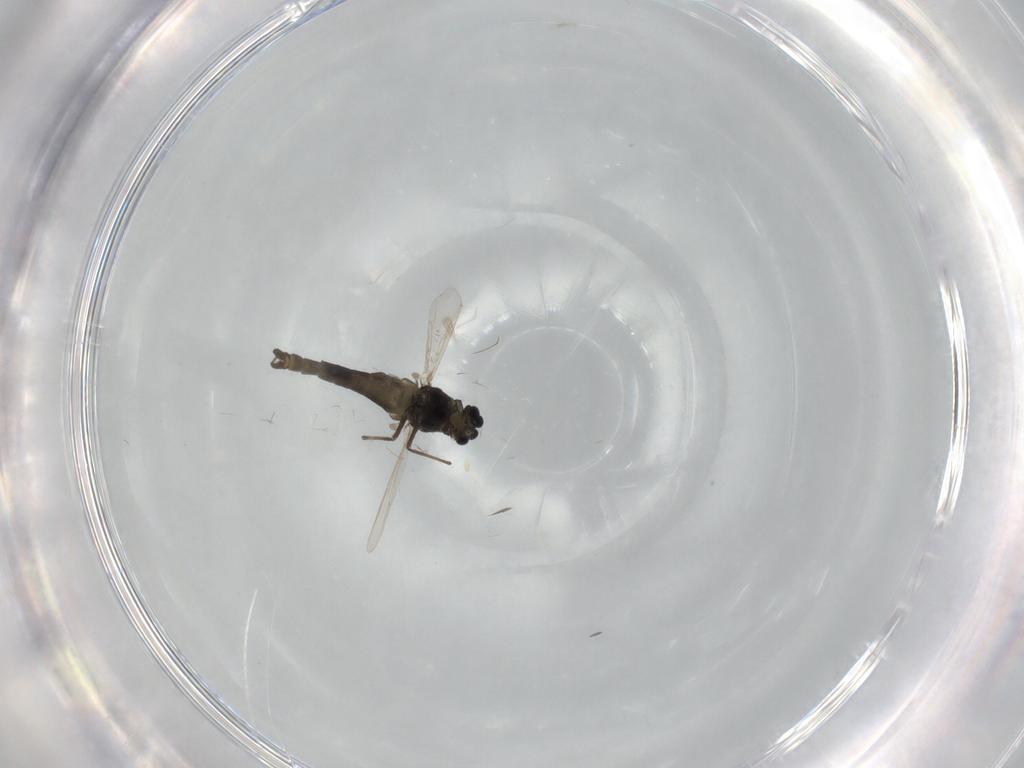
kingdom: Animalia
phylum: Arthropoda
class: Insecta
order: Diptera
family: Chironomidae
